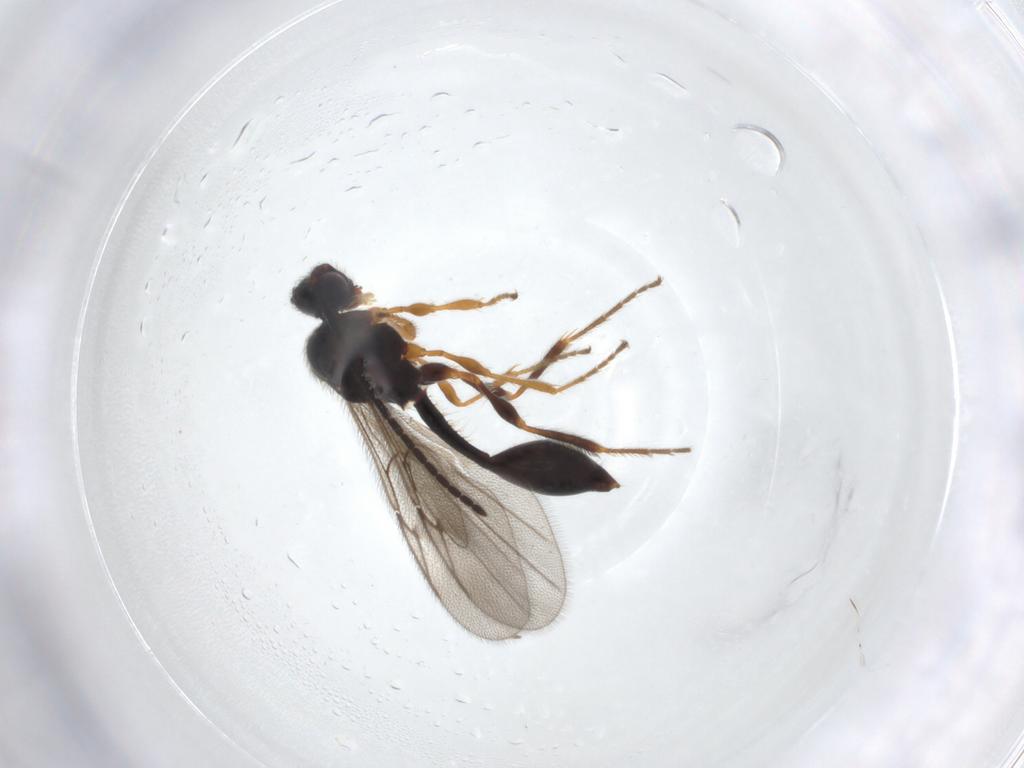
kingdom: Animalia
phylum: Arthropoda
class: Insecta
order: Hymenoptera
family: Diapriidae
